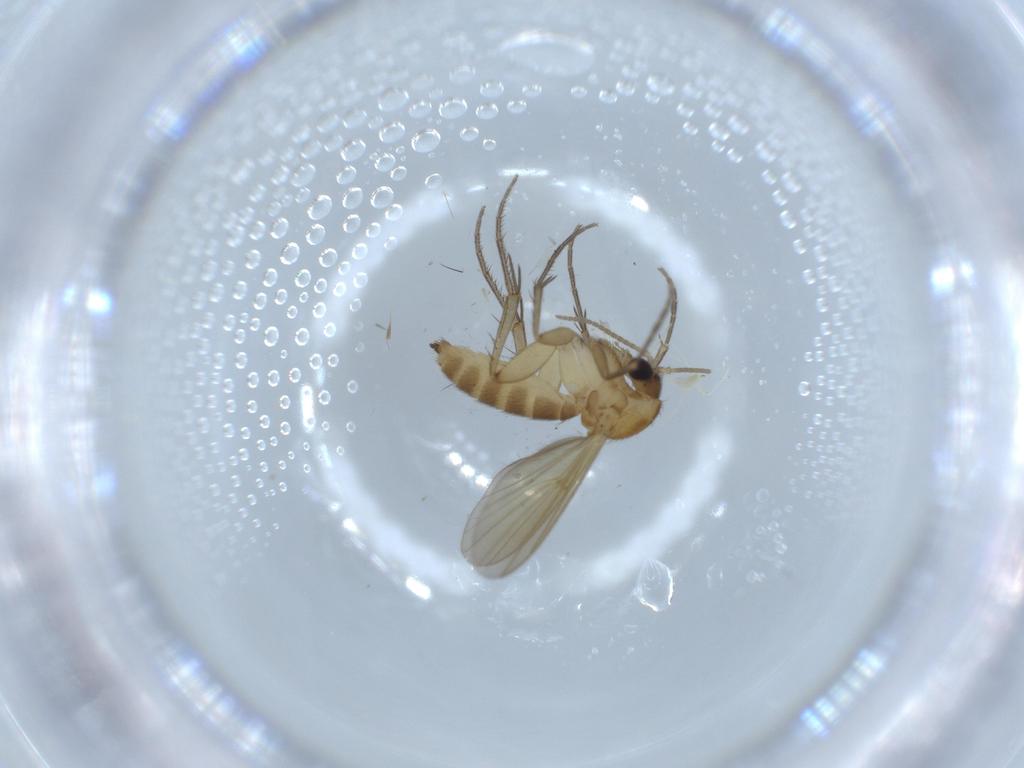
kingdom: Animalia
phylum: Arthropoda
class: Insecta
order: Diptera
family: Mycetophilidae
